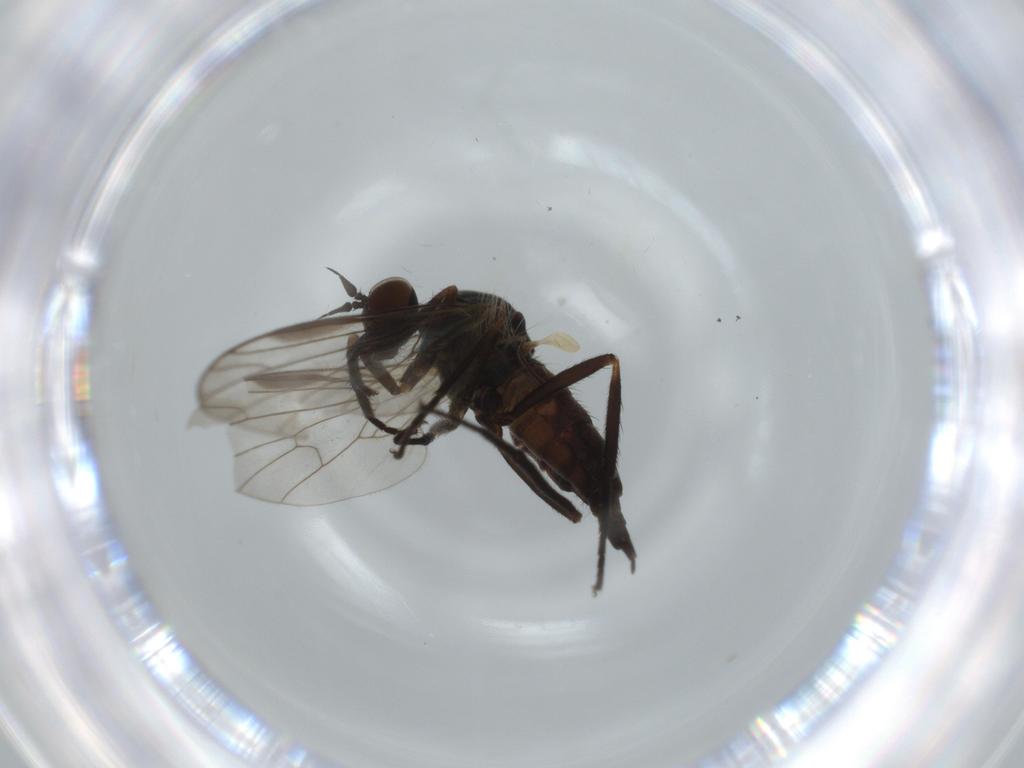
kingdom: Animalia
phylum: Arthropoda
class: Insecta
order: Diptera
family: Empididae
